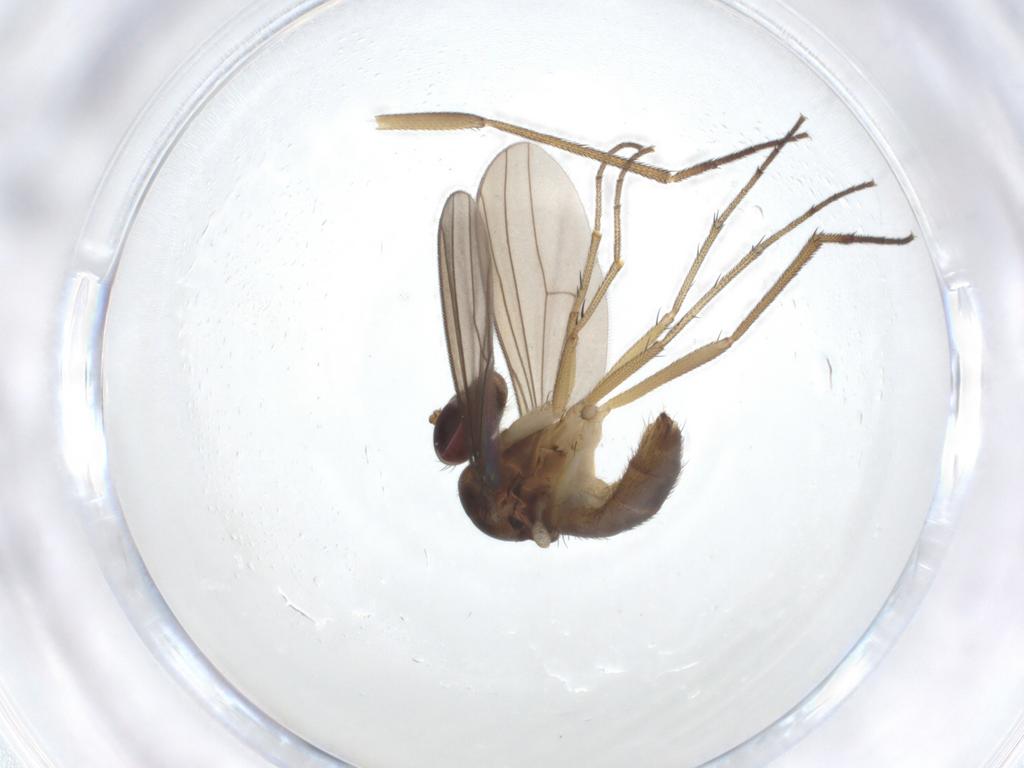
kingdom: Animalia
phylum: Arthropoda
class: Insecta
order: Diptera
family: Dolichopodidae
